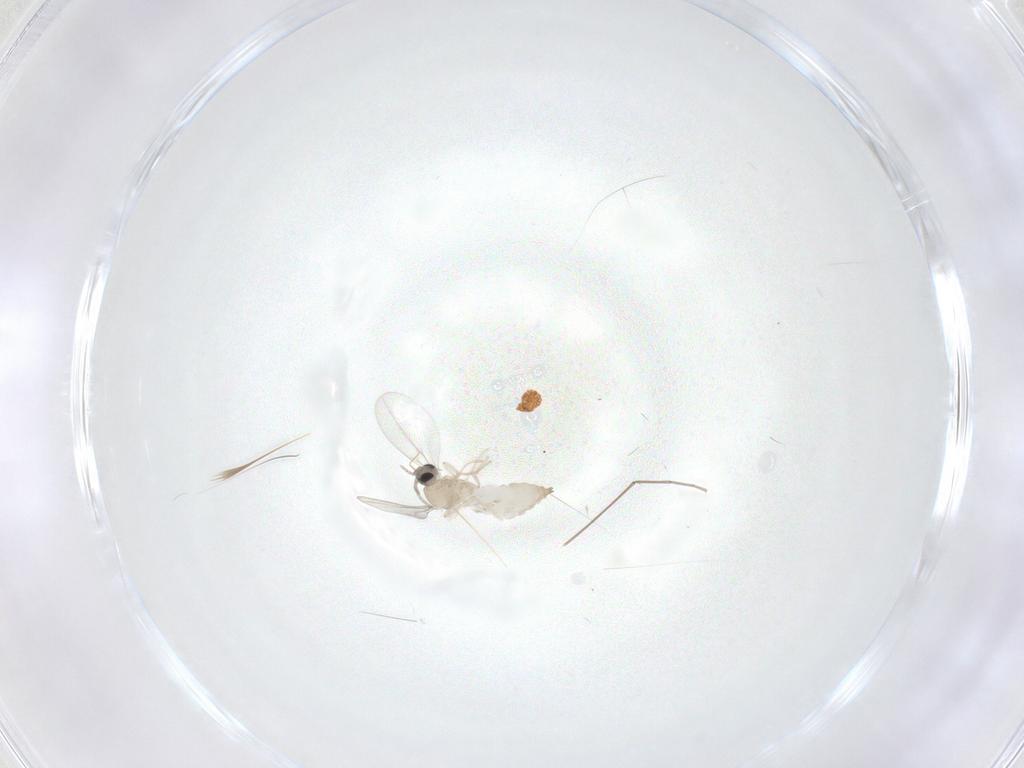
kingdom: Animalia
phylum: Arthropoda
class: Insecta
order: Diptera
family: Cecidomyiidae
